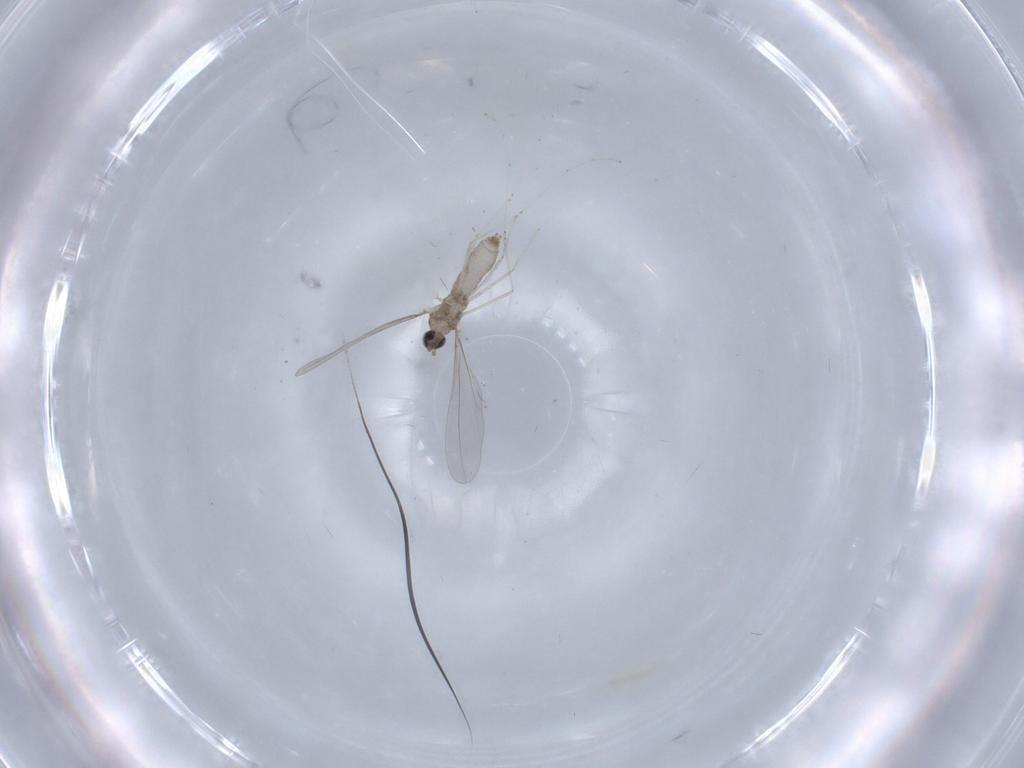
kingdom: Animalia
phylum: Arthropoda
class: Insecta
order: Diptera
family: Cecidomyiidae
